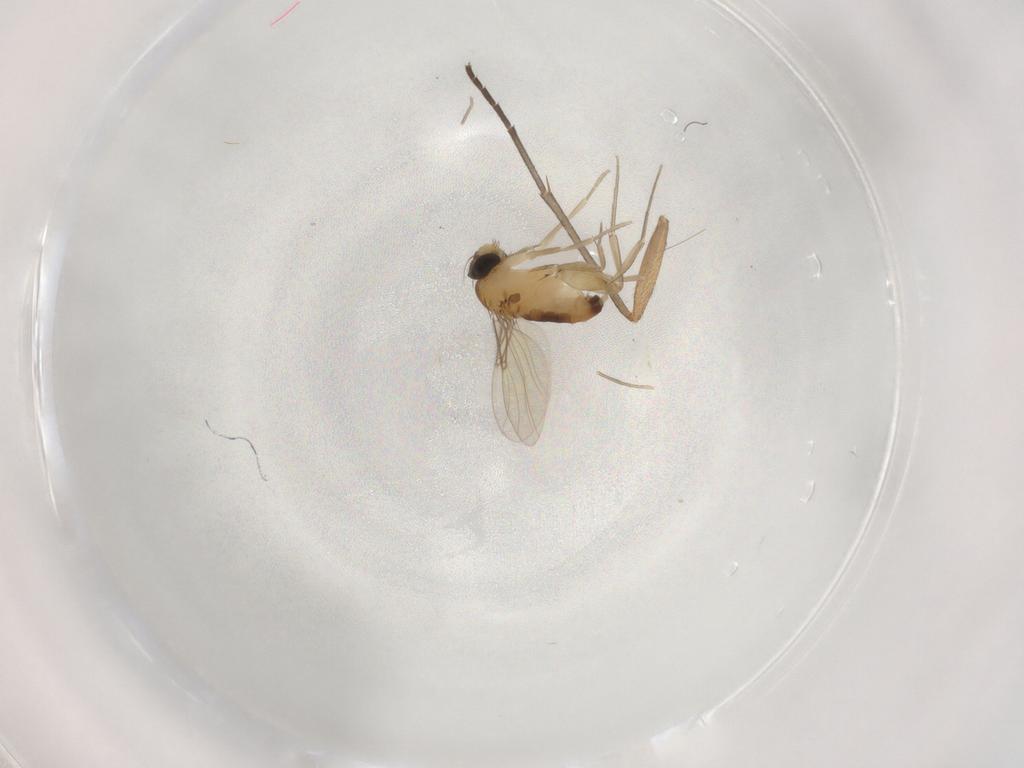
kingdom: Animalia
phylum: Arthropoda
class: Insecta
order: Diptera
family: Phoridae
